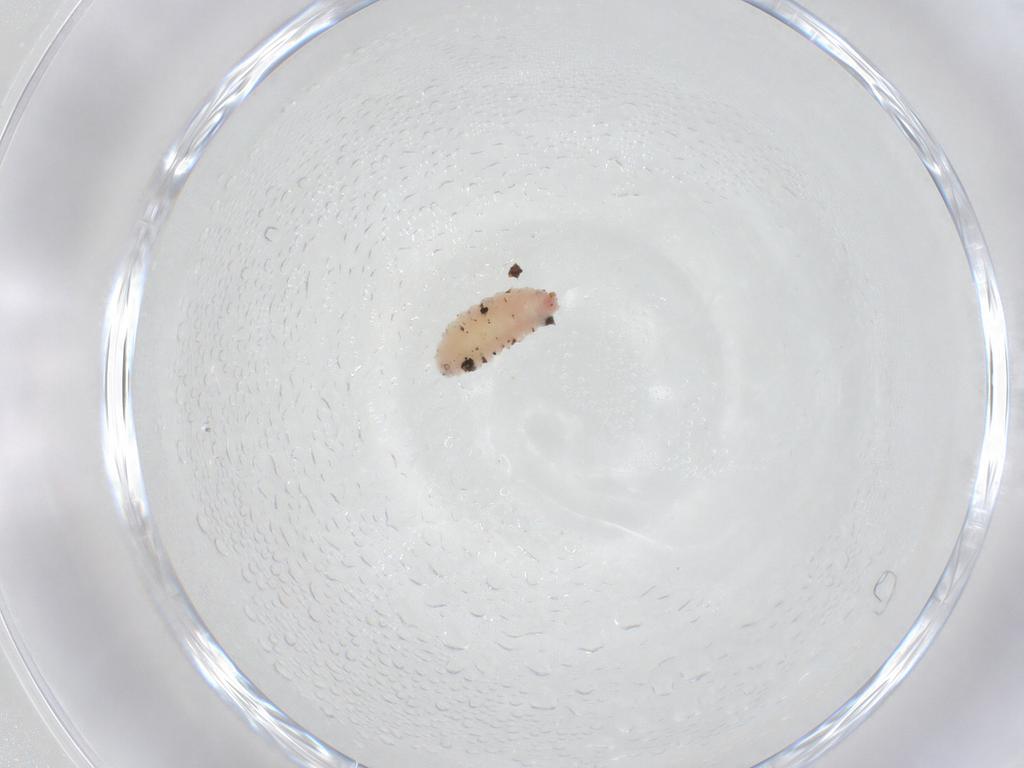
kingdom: Animalia
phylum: Arthropoda
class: Insecta
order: Diptera
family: Cecidomyiidae
